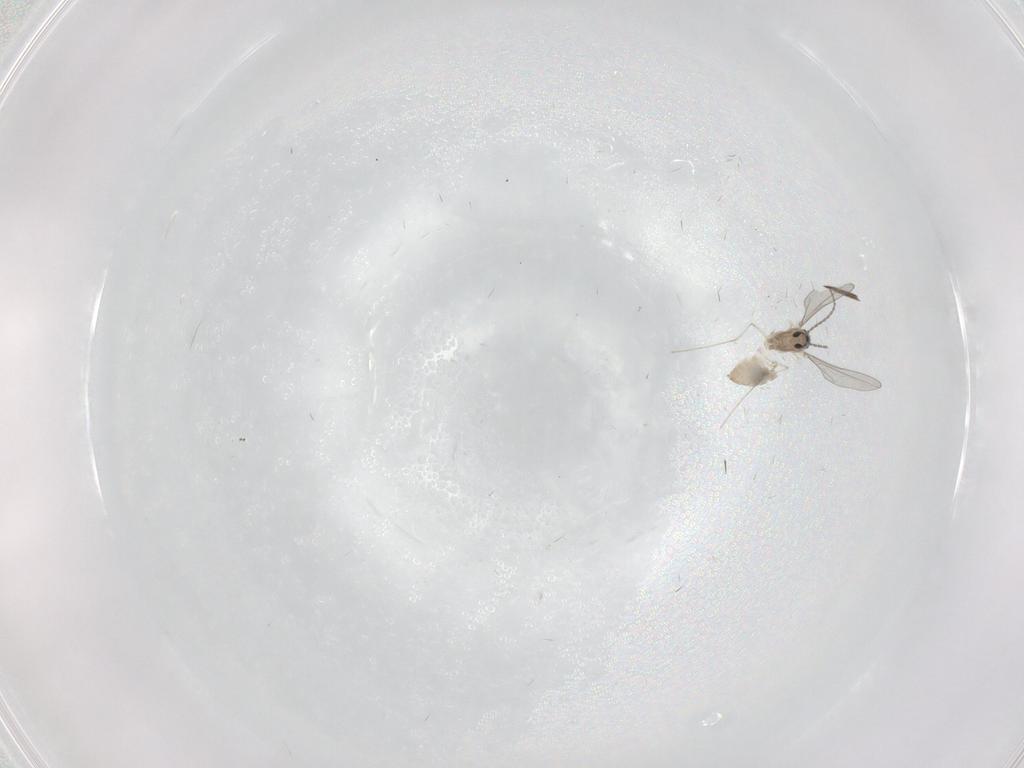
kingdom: Animalia
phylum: Arthropoda
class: Insecta
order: Diptera
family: Cecidomyiidae
